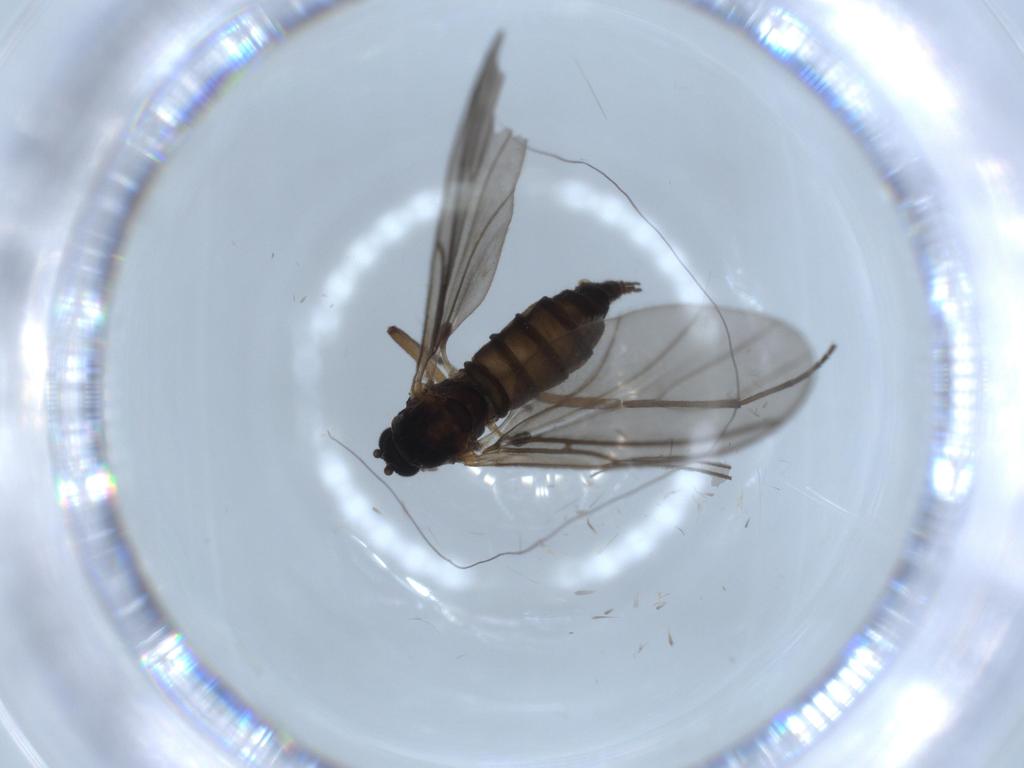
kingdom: Animalia
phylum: Arthropoda
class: Insecta
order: Diptera
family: Sciaridae
